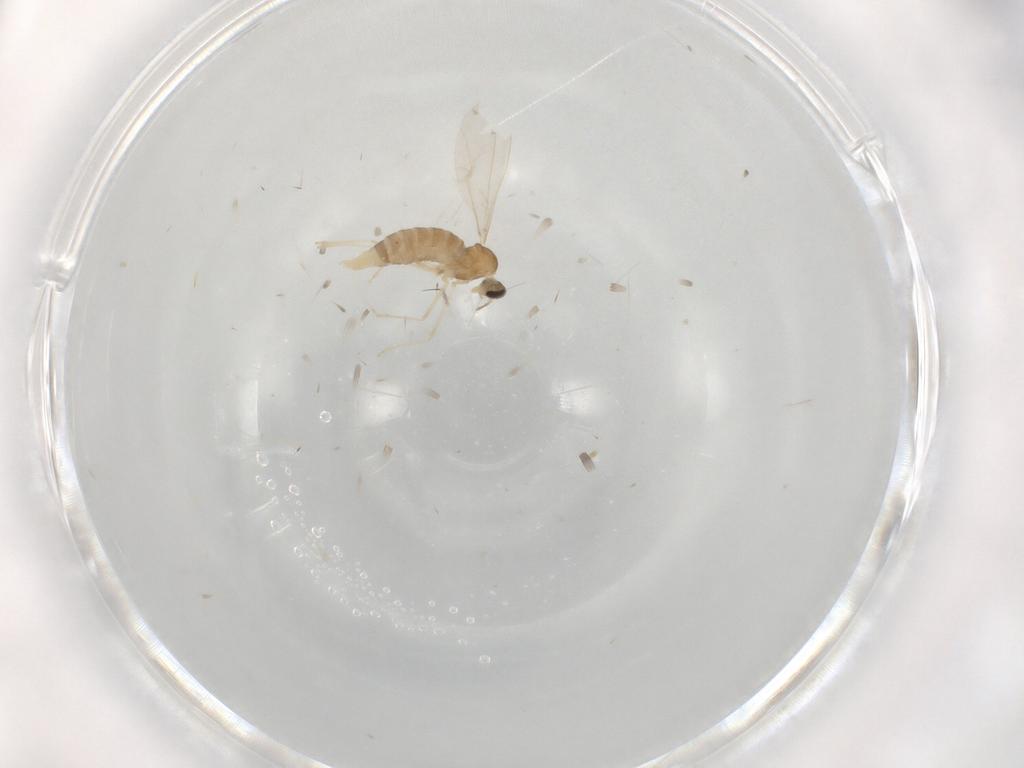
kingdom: Animalia
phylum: Arthropoda
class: Insecta
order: Diptera
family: Cecidomyiidae
